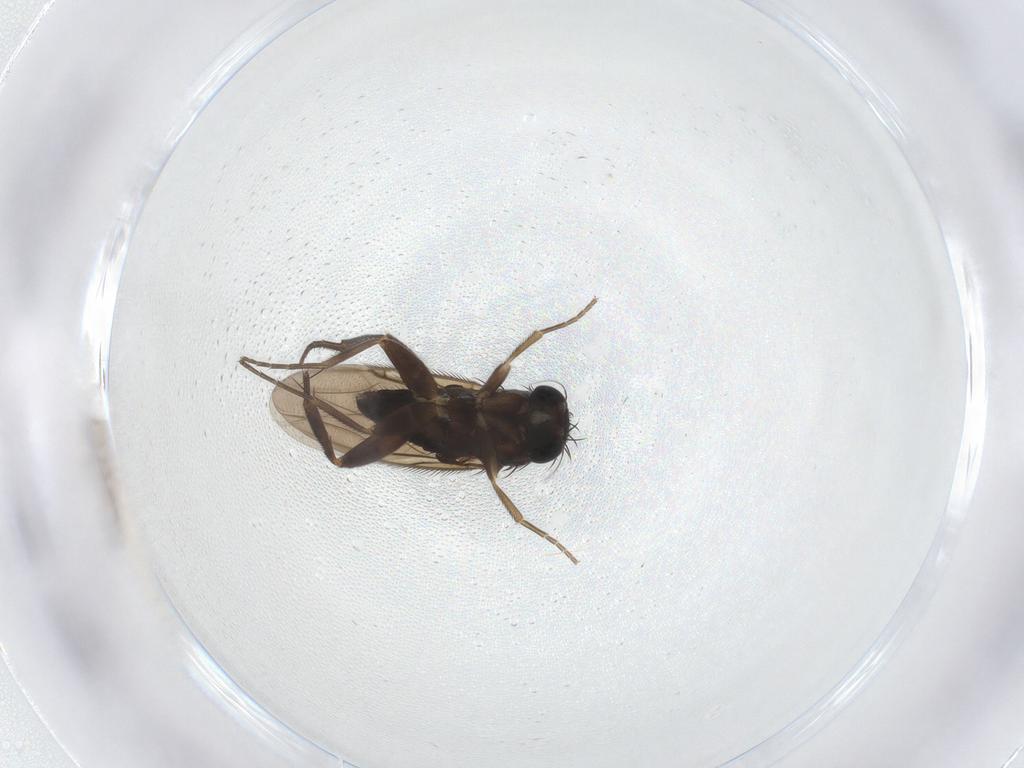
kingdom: Animalia
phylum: Arthropoda
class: Insecta
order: Diptera
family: Phoridae
